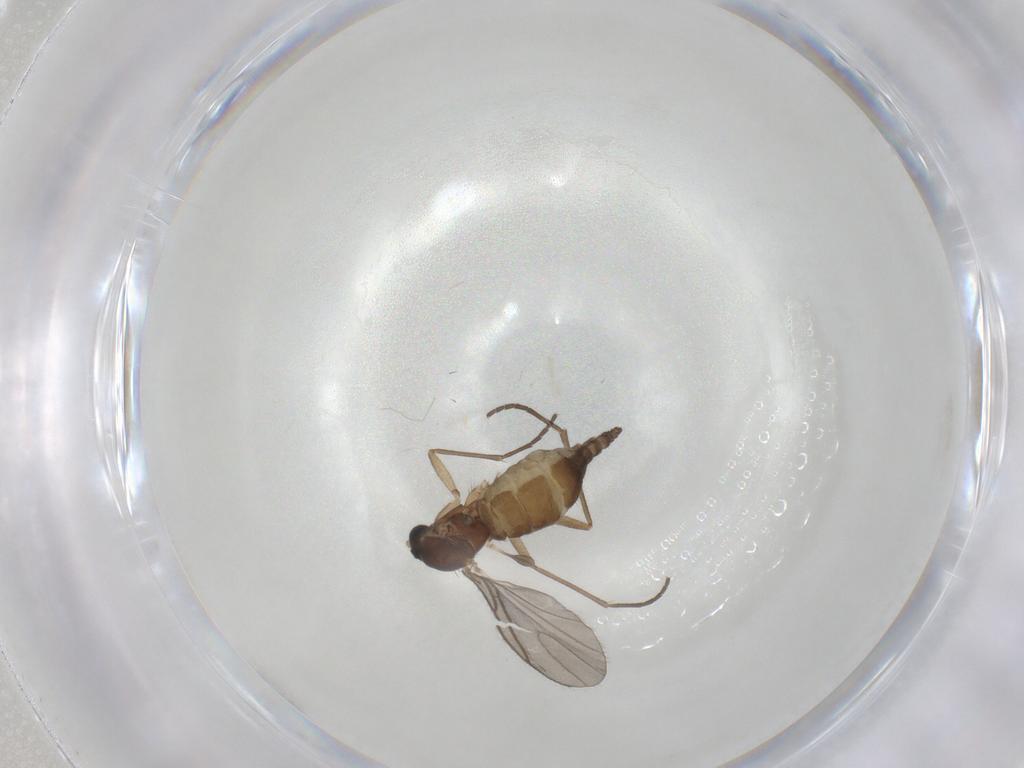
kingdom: Animalia
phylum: Arthropoda
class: Insecta
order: Diptera
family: Sciaridae
